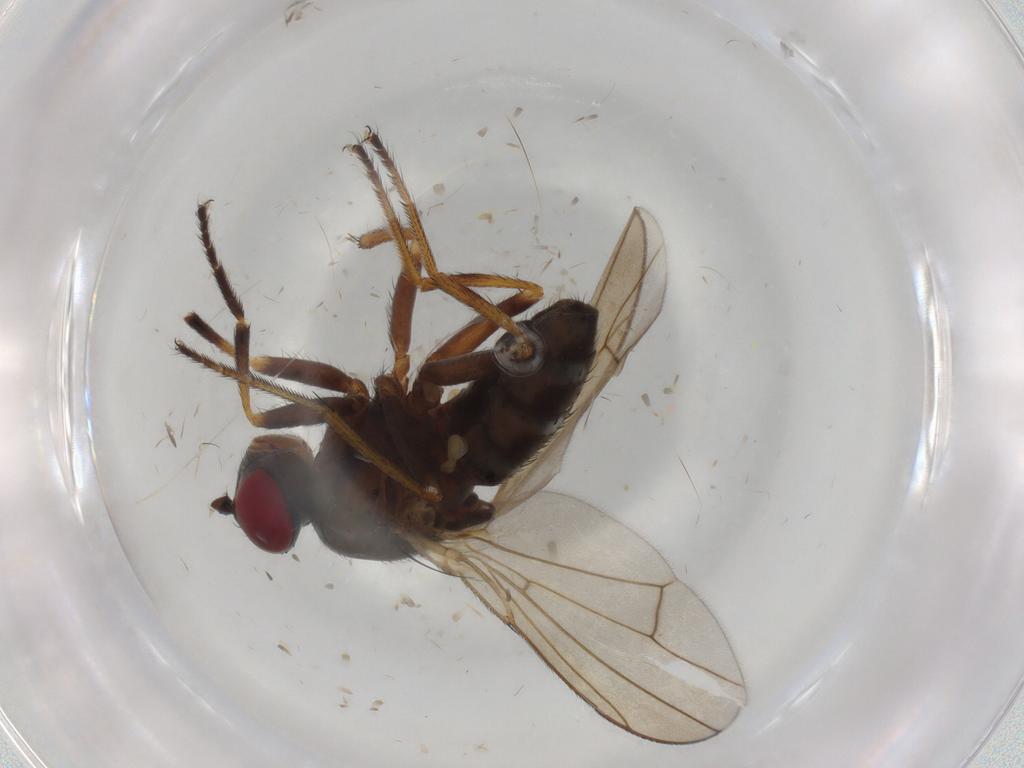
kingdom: Animalia
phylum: Arthropoda
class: Insecta
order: Diptera
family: Ephydridae
